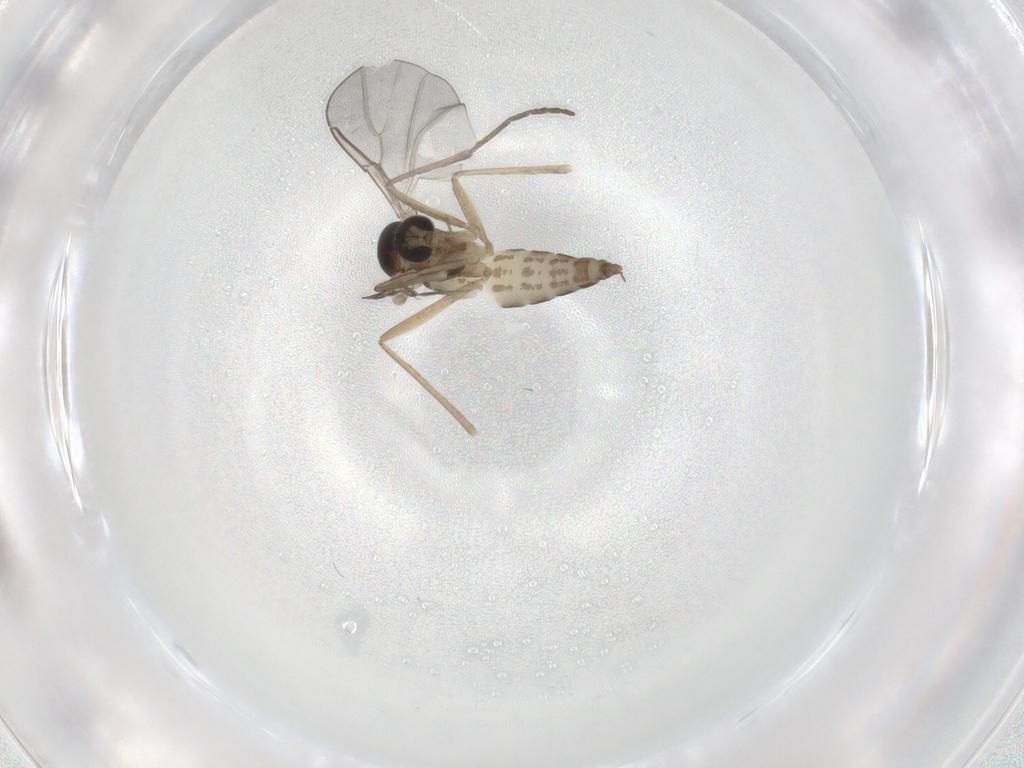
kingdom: Animalia
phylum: Arthropoda
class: Insecta
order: Diptera
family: Cecidomyiidae
